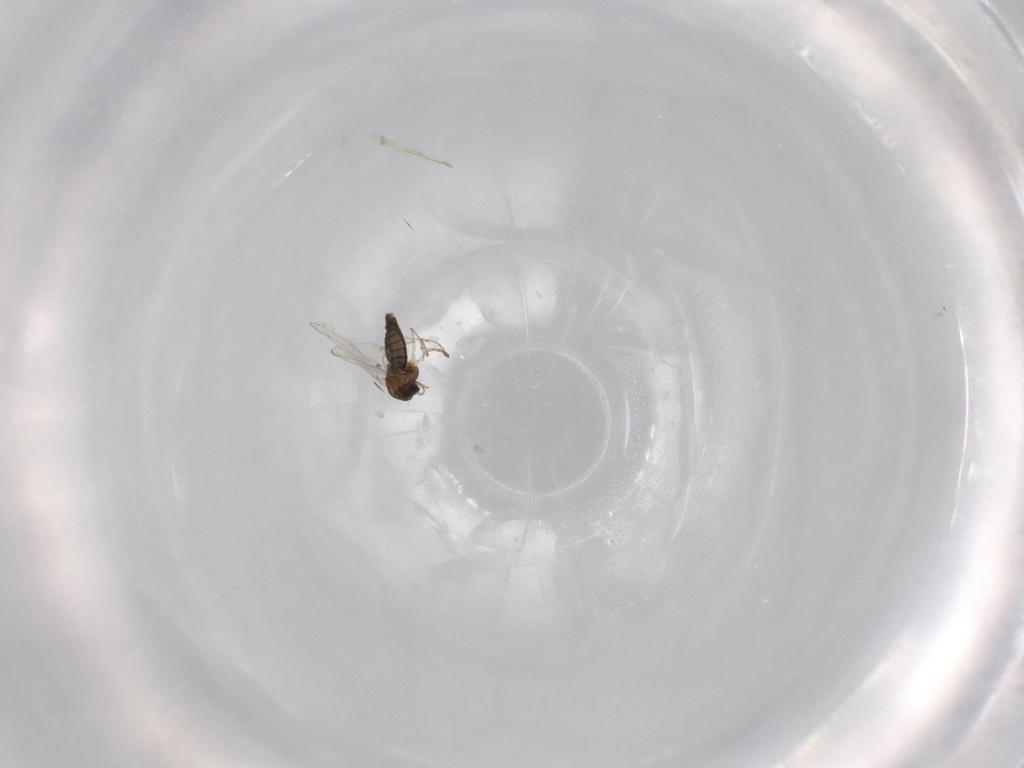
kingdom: Animalia
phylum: Arthropoda
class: Insecta
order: Diptera
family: Chironomidae
